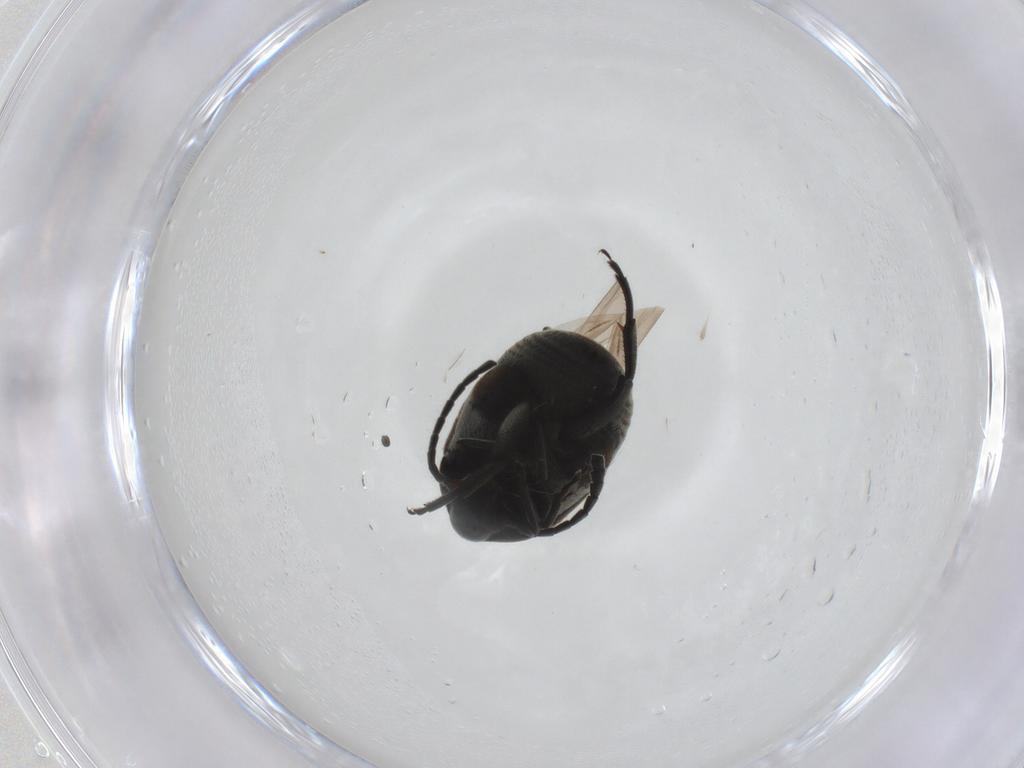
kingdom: Animalia
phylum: Arthropoda
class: Insecta
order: Coleoptera
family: Chrysomelidae
